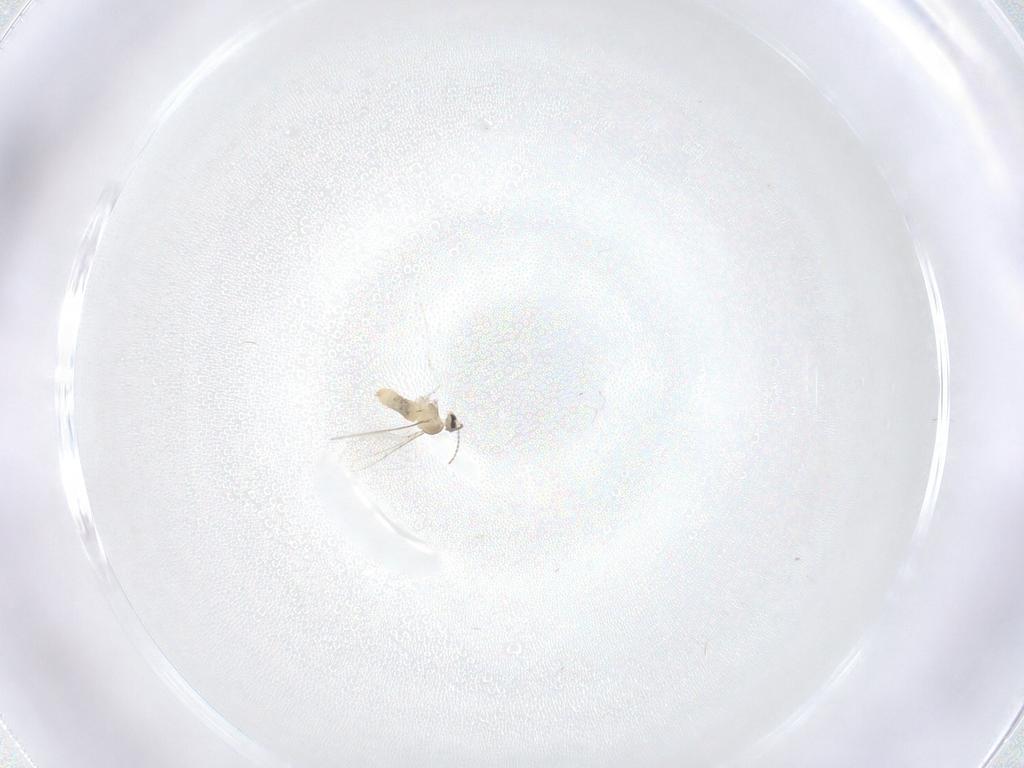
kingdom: Animalia
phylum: Arthropoda
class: Insecta
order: Diptera
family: Cecidomyiidae
